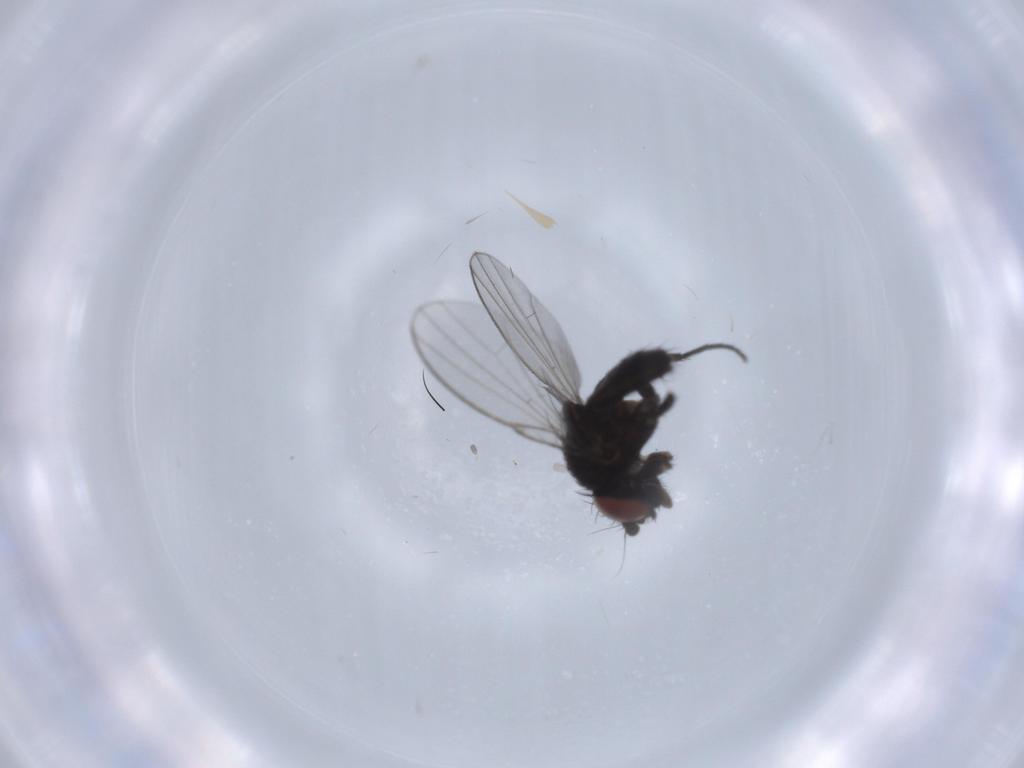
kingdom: Animalia
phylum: Arthropoda
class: Insecta
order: Diptera
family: Milichiidae
